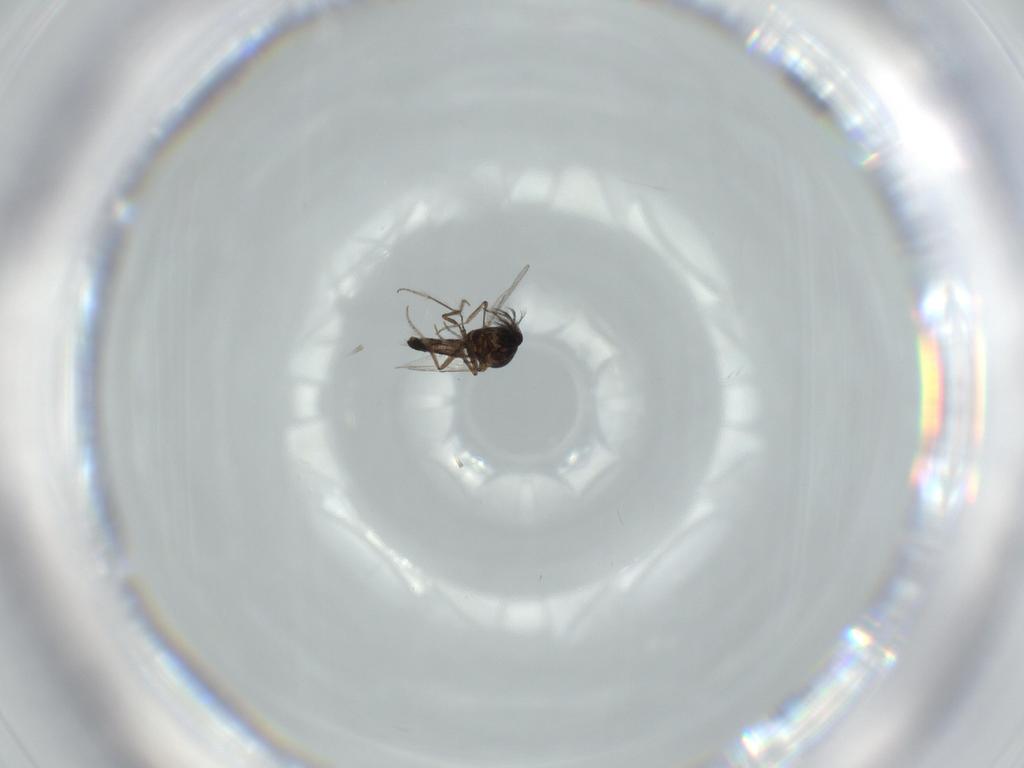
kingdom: Animalia
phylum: Arthropoda
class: Insecta
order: Diptera
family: Ceratopogonidae
